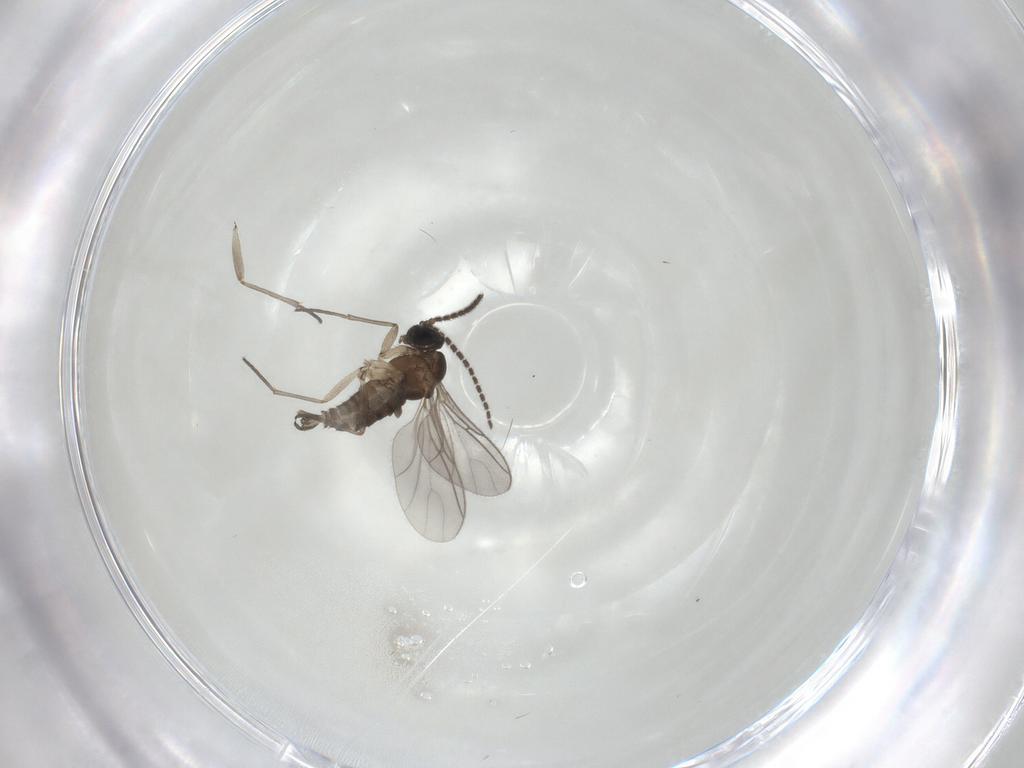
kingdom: Animalia
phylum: Arthropoda
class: Insecta
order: Diptera
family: Sciaridae
